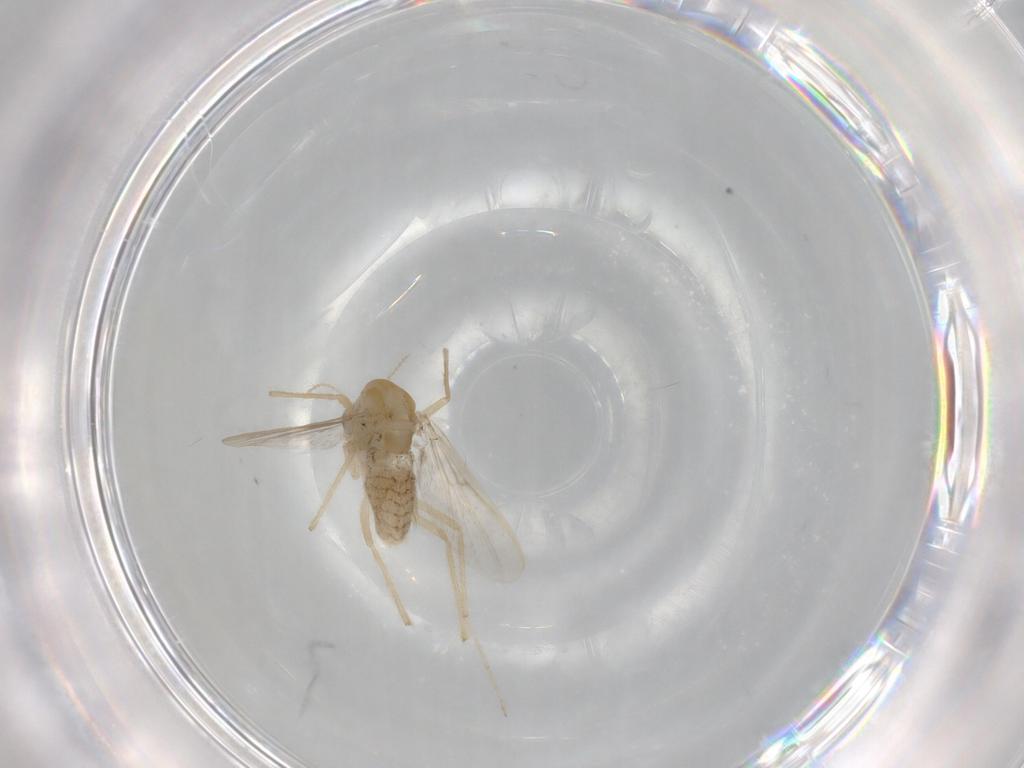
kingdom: Animalia
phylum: Arthropoda
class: Insecta
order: Diptera
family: Chironomidae
